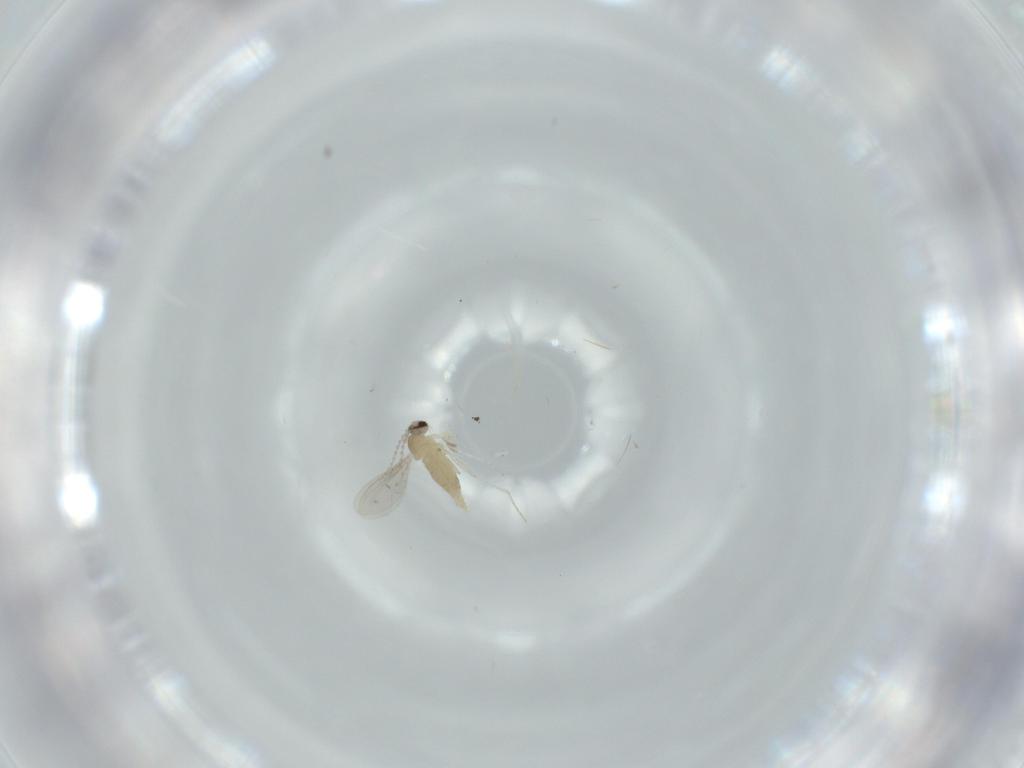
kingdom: Animalia
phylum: Arthropoda
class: Insecta
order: Diptera
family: Cecidomyiidae
